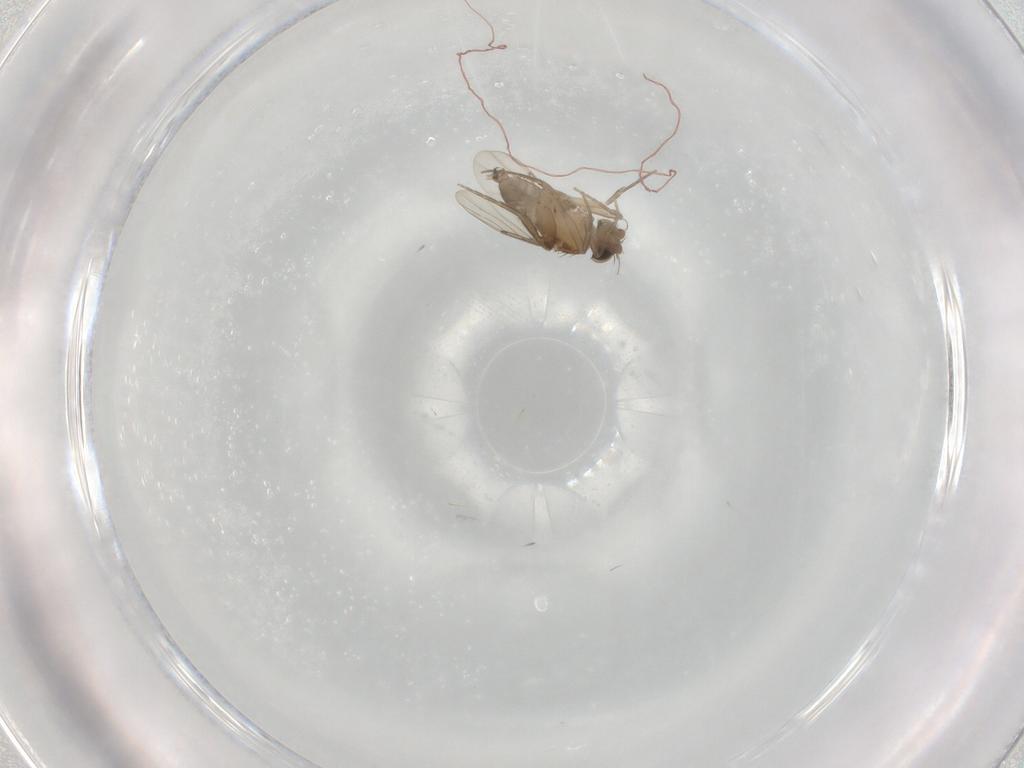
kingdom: Animalia
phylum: Arthropoda
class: Insecta
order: Diptera
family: Phoridae
